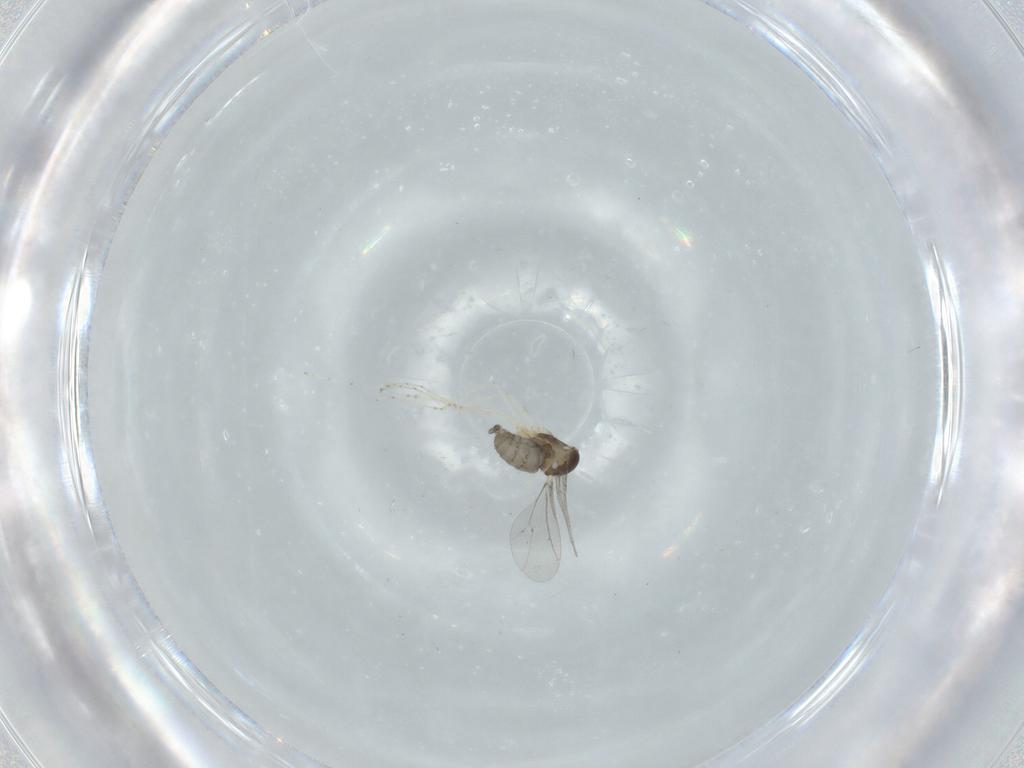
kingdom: Animalia
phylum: Arthropoda
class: Insecta
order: Diptera
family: Cecidomyiidae
